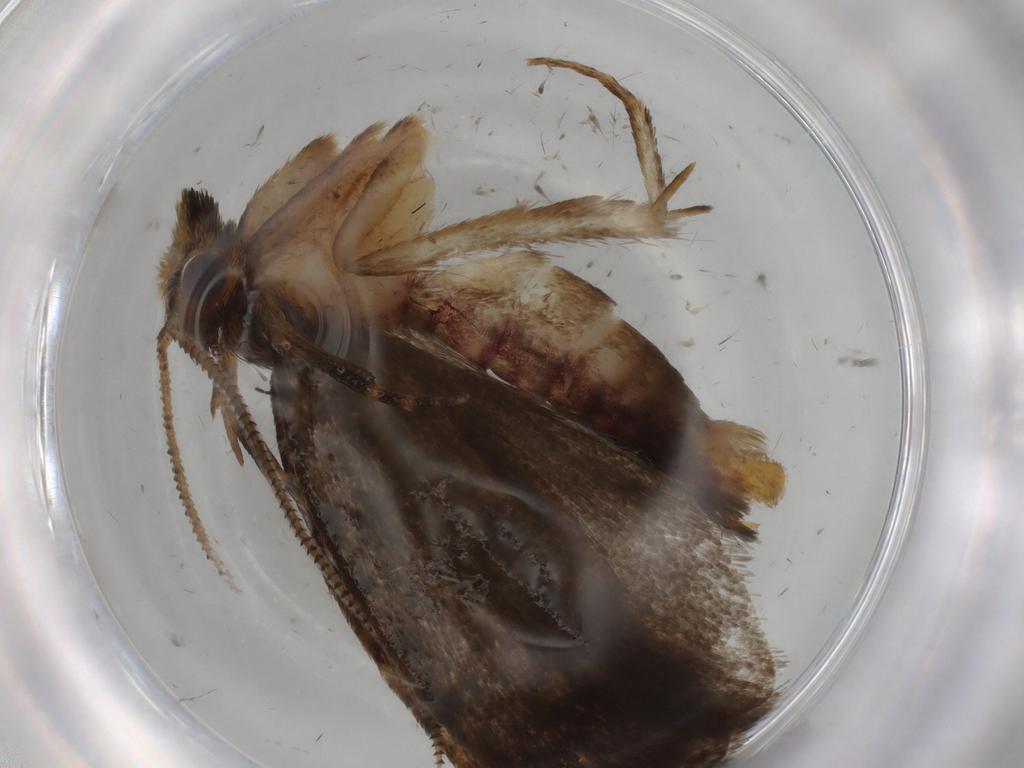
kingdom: Animalia
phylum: Arthropoda
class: Insecta
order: Lepidoptera
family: Tineidae
